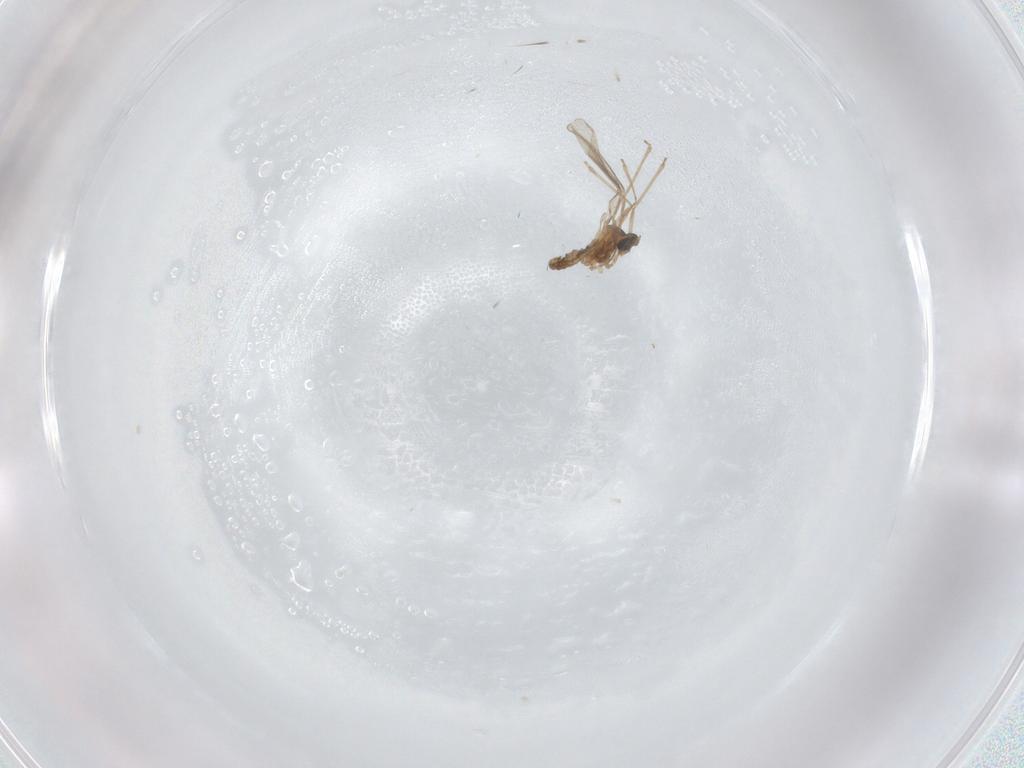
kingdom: Animalia
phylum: Arthropoda
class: Insecta
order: Diptera
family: Cecidomyiidae
